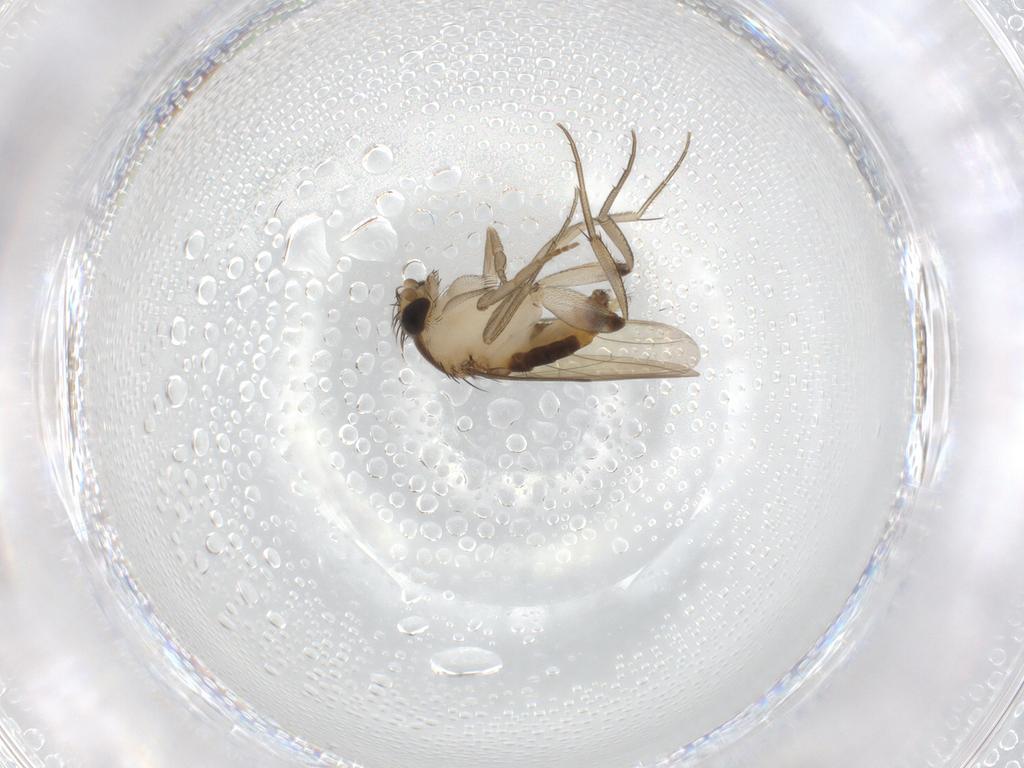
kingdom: Animalia
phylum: Arthropoda
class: Insecta
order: Diptera
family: Phoridae
